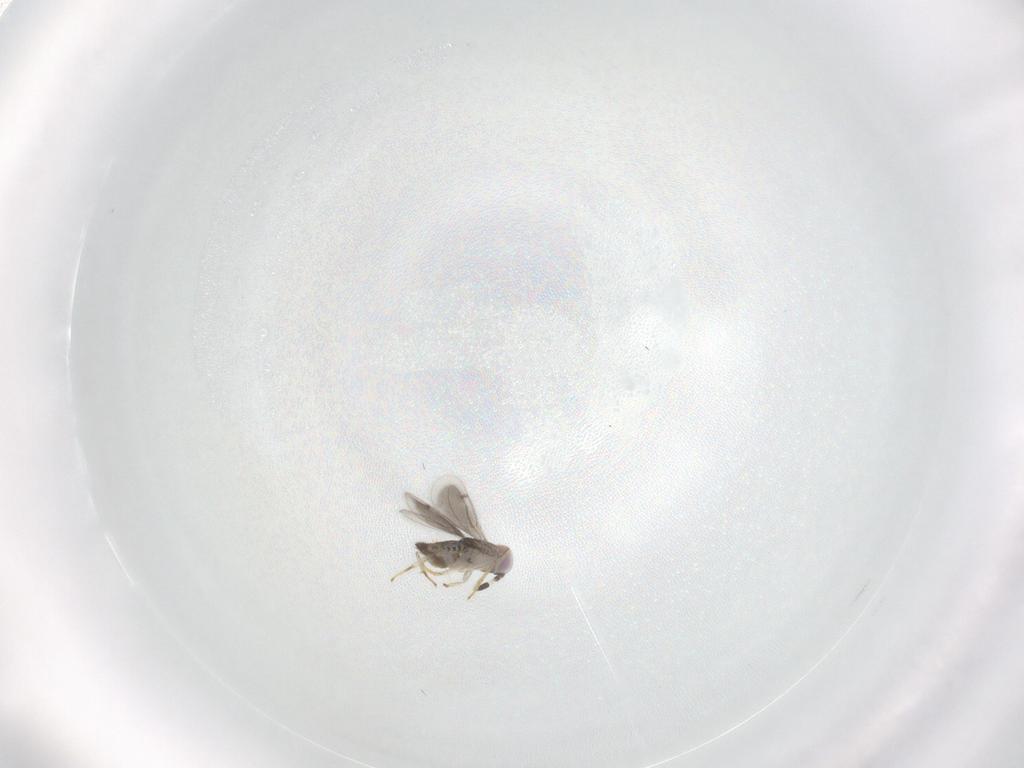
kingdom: Animalia
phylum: Arthropoda
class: Insecta
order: Hymenoptera
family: Aphelinidae
